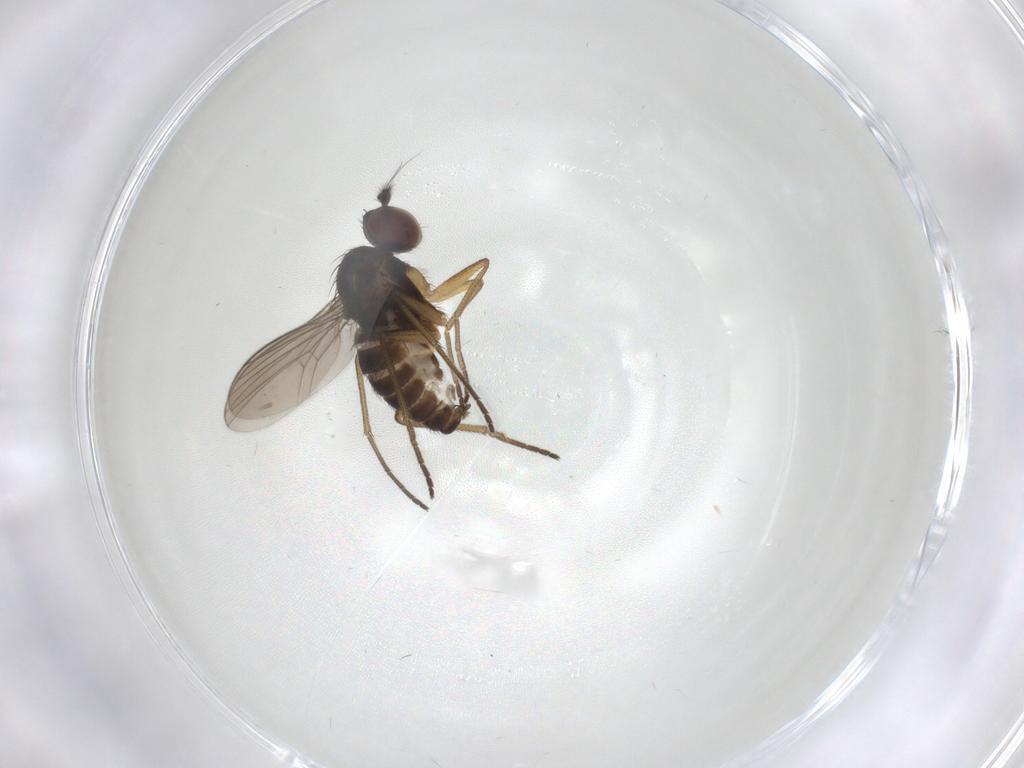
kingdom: Animalia
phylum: Arthropoda
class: Insecta
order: Diptera
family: Dolichopodidae
